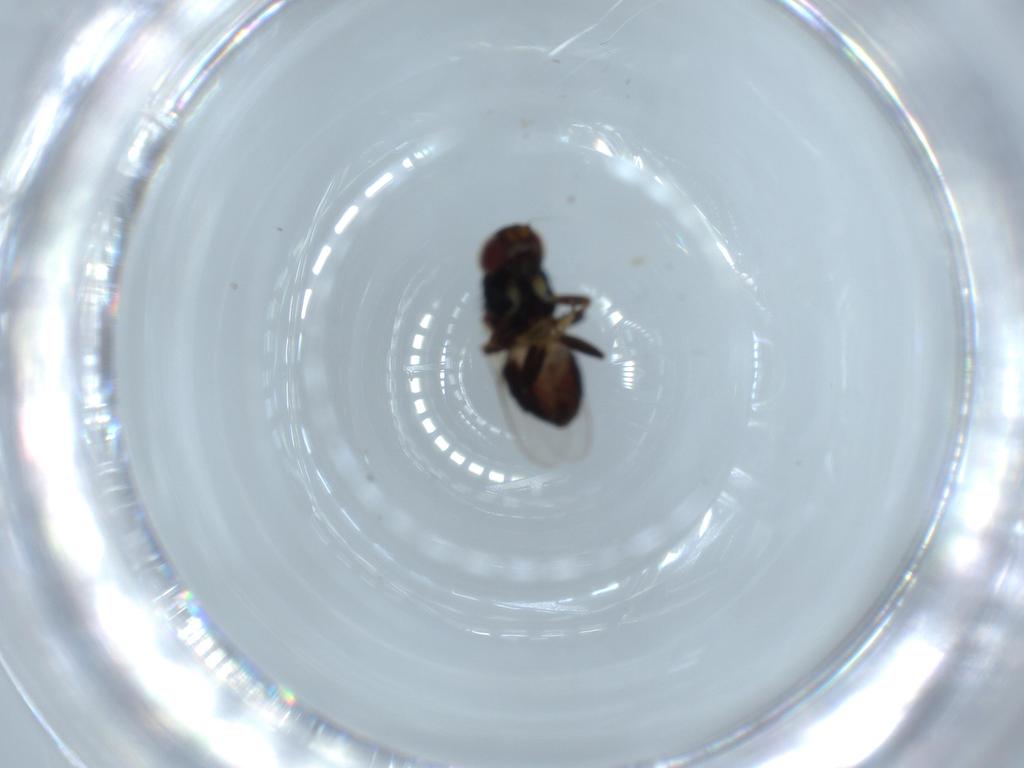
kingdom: Animalia
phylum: Arthropoda
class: Insecta
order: Diptera
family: Chloropidae
